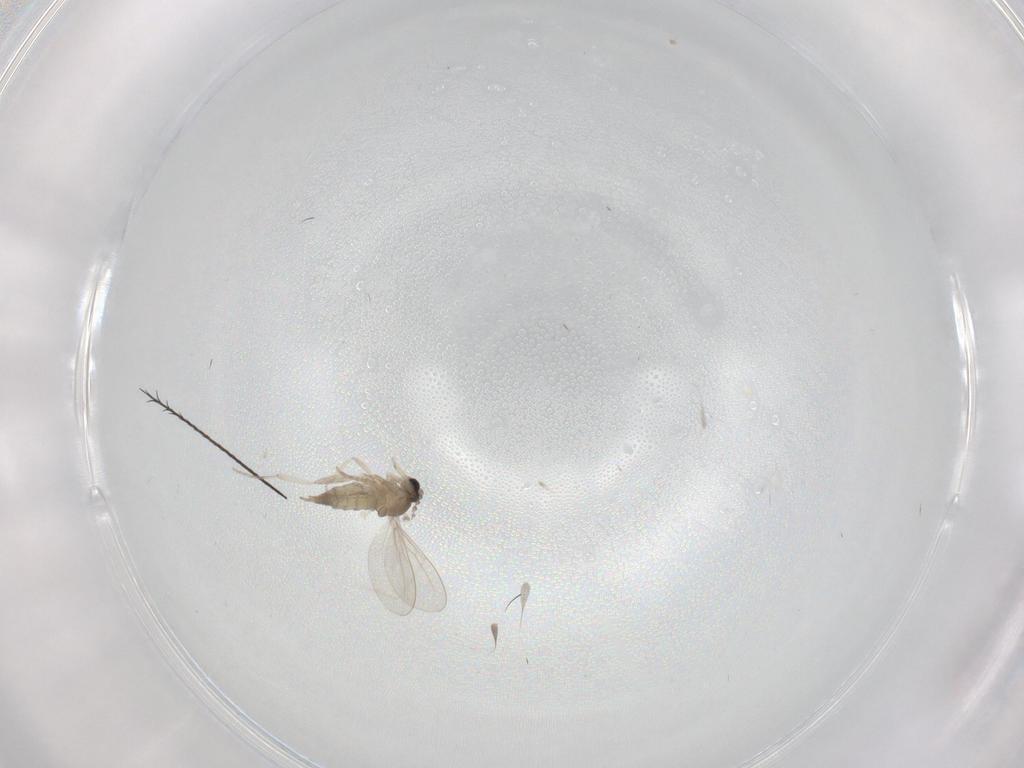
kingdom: Animalia
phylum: Arthropoda
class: Insecta
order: Diptera
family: Cecidomyiidae
